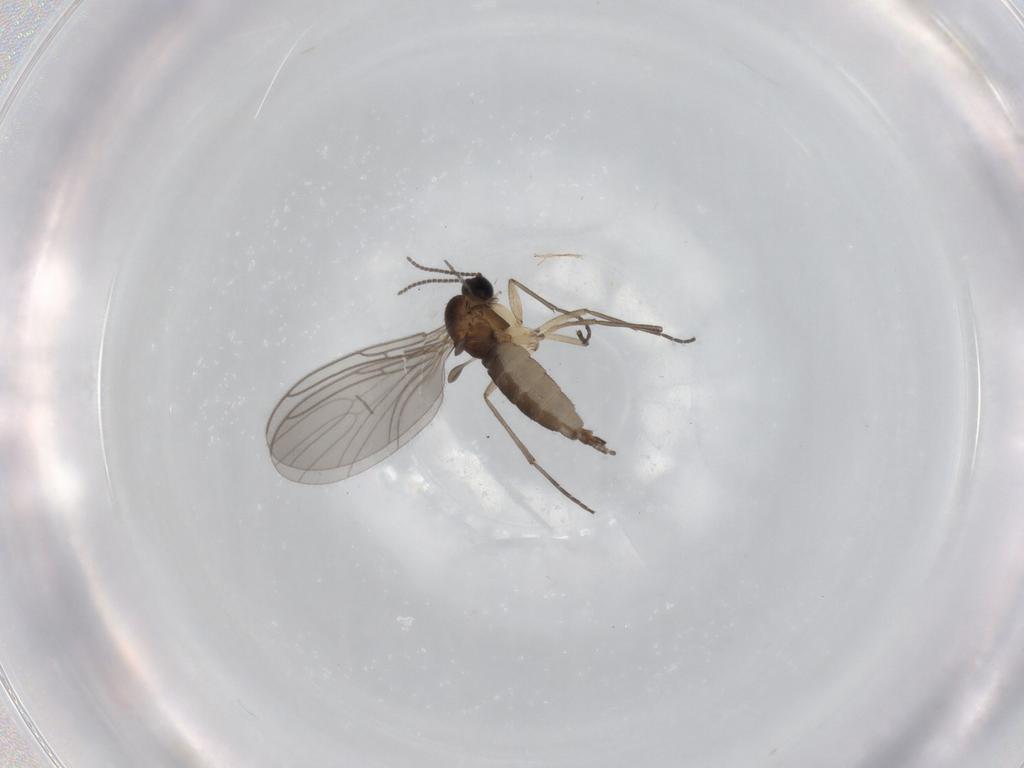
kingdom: Animalia
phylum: Arthropoda
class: Insecta
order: Diptera
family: Sciaridae
